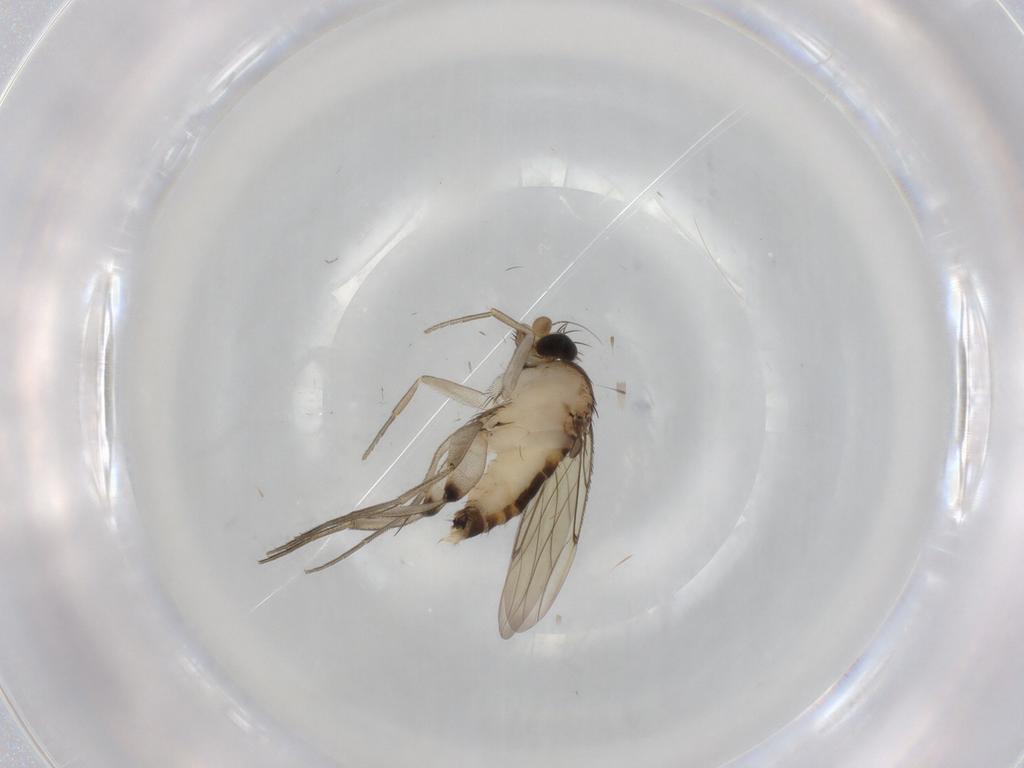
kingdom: Animalia
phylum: Arthropoda
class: Insecta
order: Diptera
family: Cecidomyiidae
